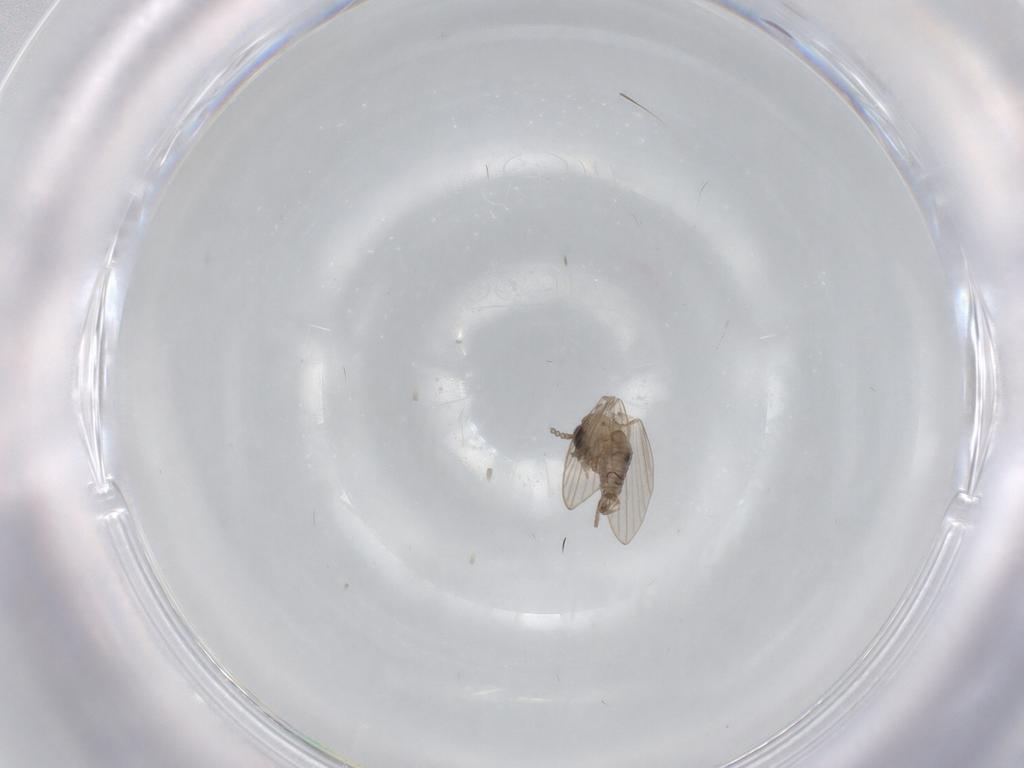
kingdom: Animalia
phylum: Arthropoda
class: Insecta
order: Diptera
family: Psychodidae
